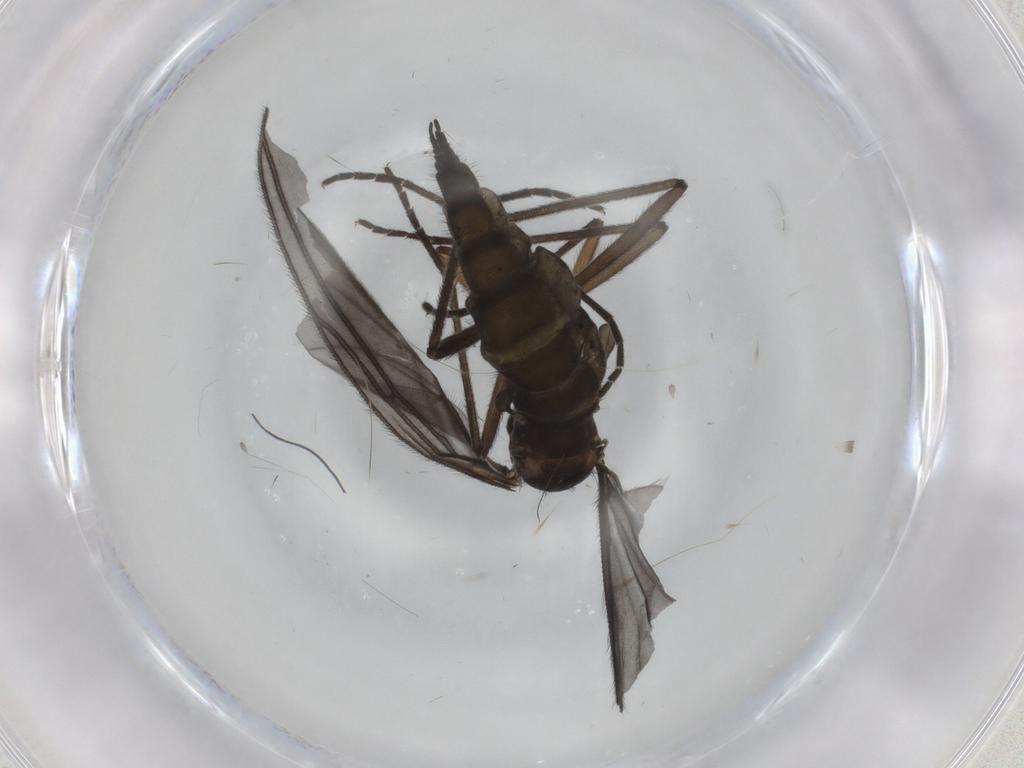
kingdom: Animalia
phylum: Arthropoda
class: Insecta
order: Diptera
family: Sciaridae
